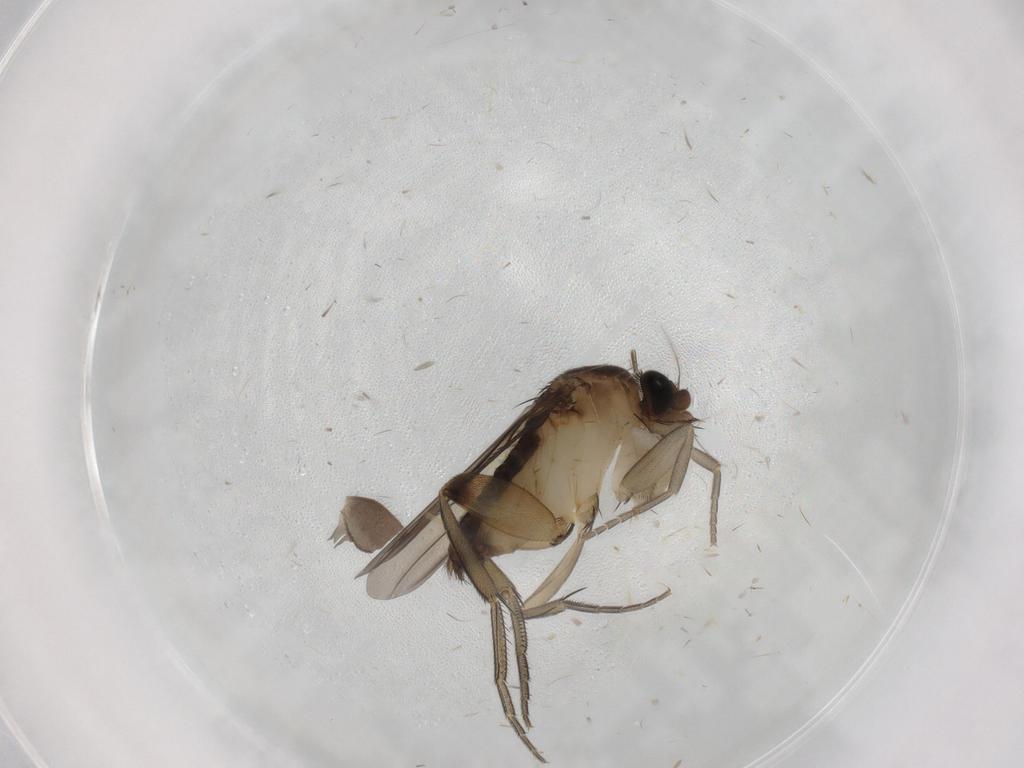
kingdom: Animalia
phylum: Arthropoda
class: Insecta
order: Diptera
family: Phoridae
